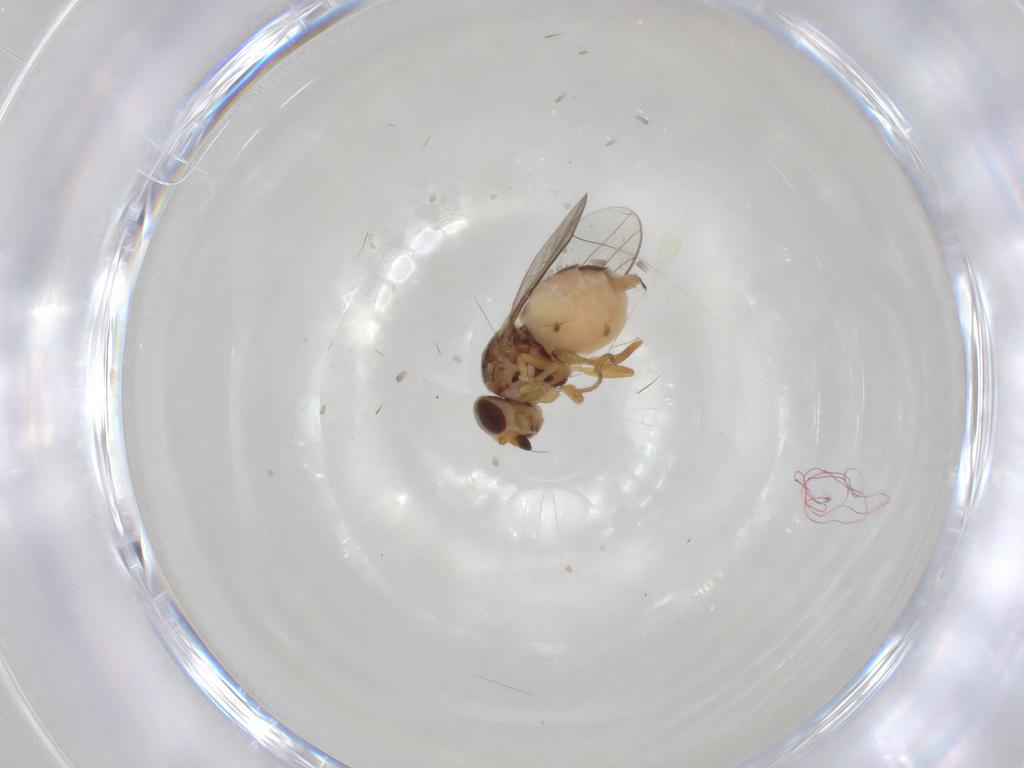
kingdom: Animalia
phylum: Arthropoda
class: Insecta
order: Diptera
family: Chloropidae
